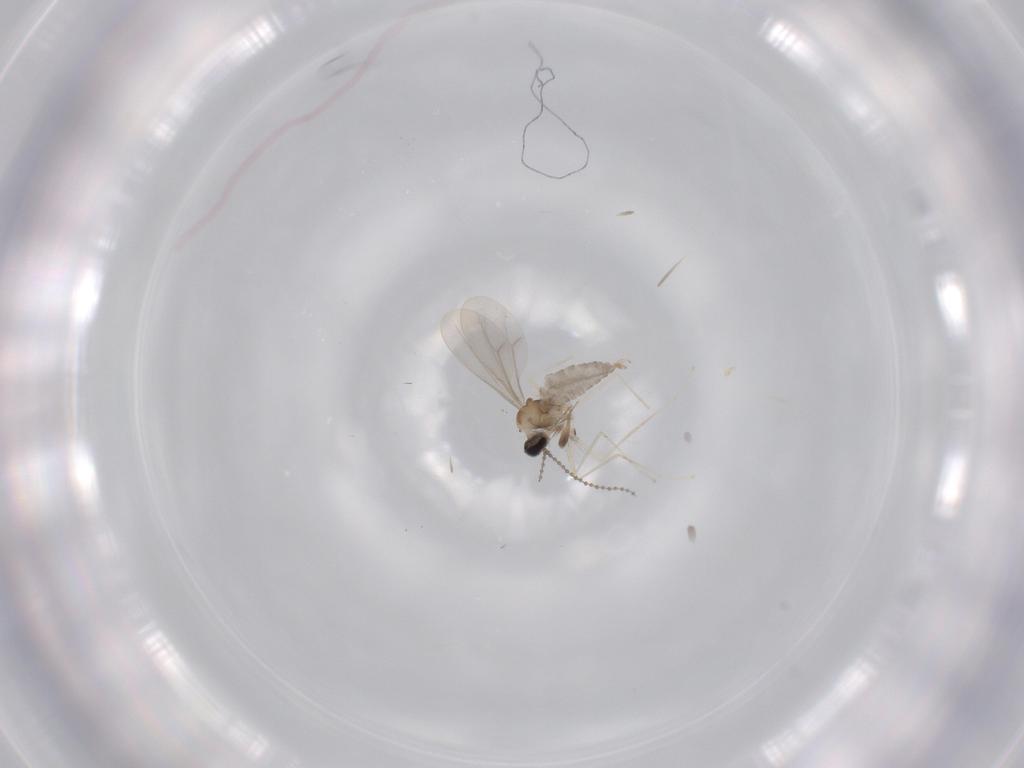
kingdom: Animalia
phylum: Arthropoda
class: Insecta
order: Diptera
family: Cecidomyiidae
